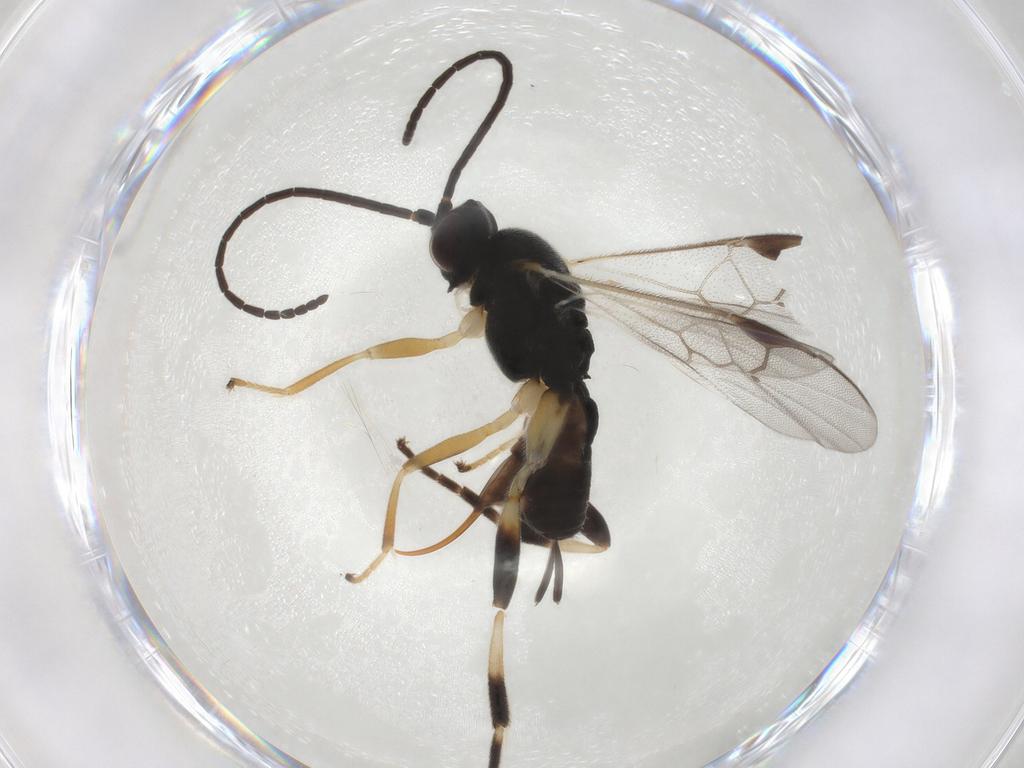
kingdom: Animalia
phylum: Arthropoda
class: Insecta
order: Hymenoptera
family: Braconidae
